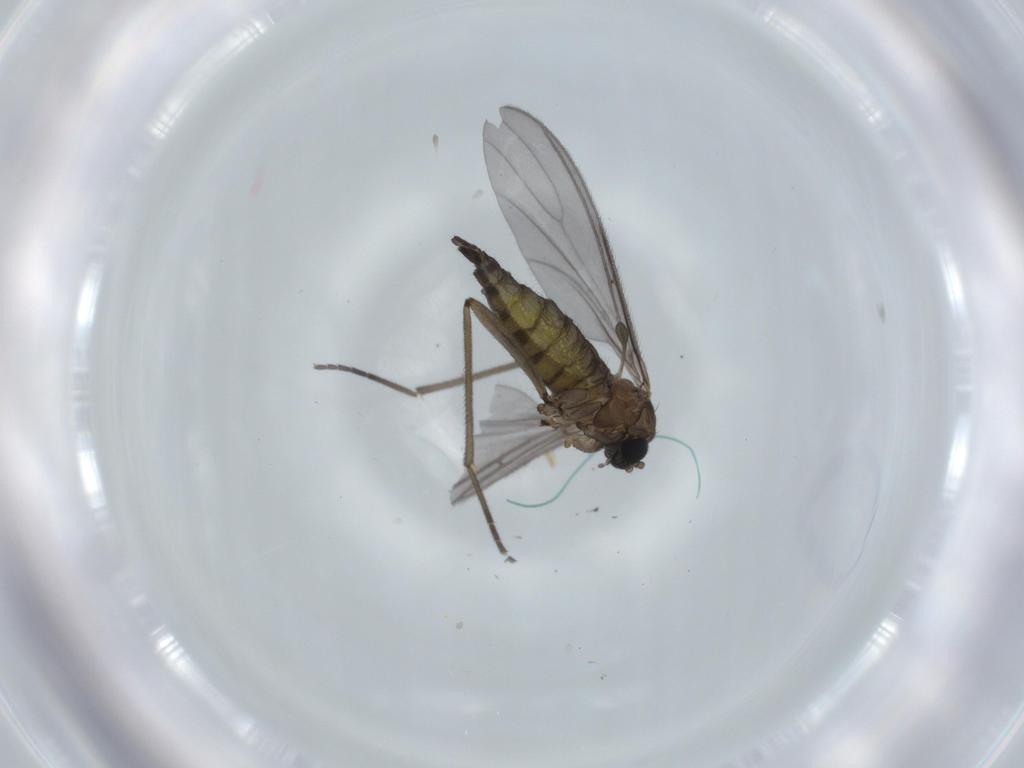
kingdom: Animalia
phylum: Arthropoda
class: Insecta
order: Diptera
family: Sciaridae
